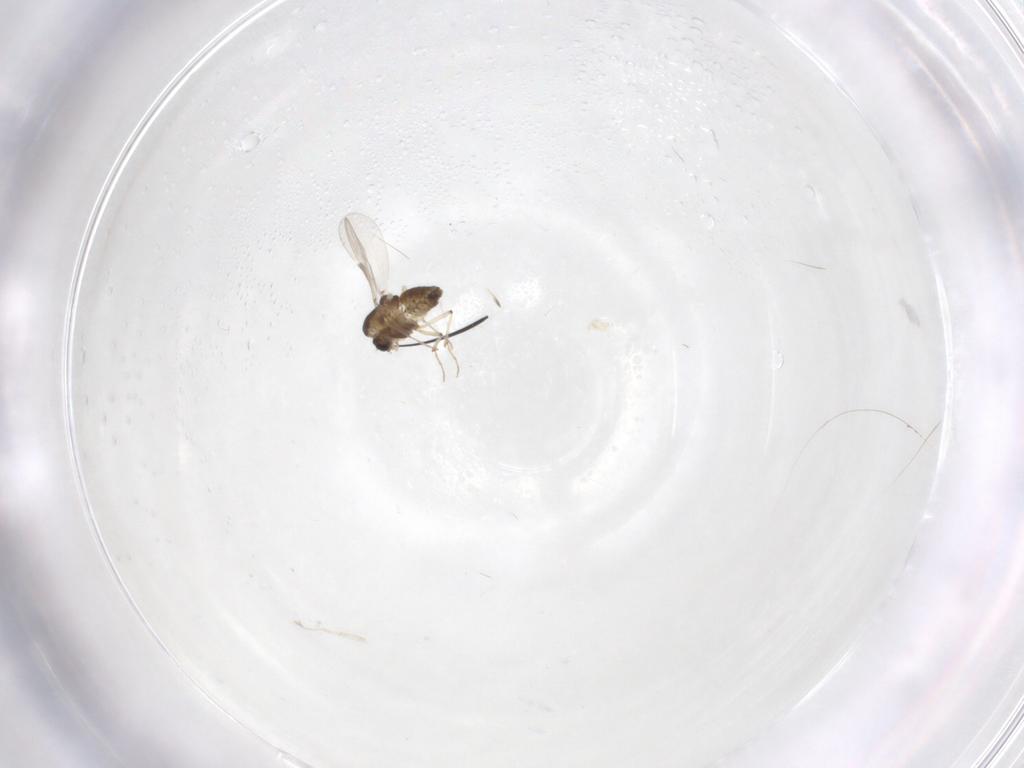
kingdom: Animalia
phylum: Arthropoda
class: Insecta
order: Diptera
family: Chironomidae
